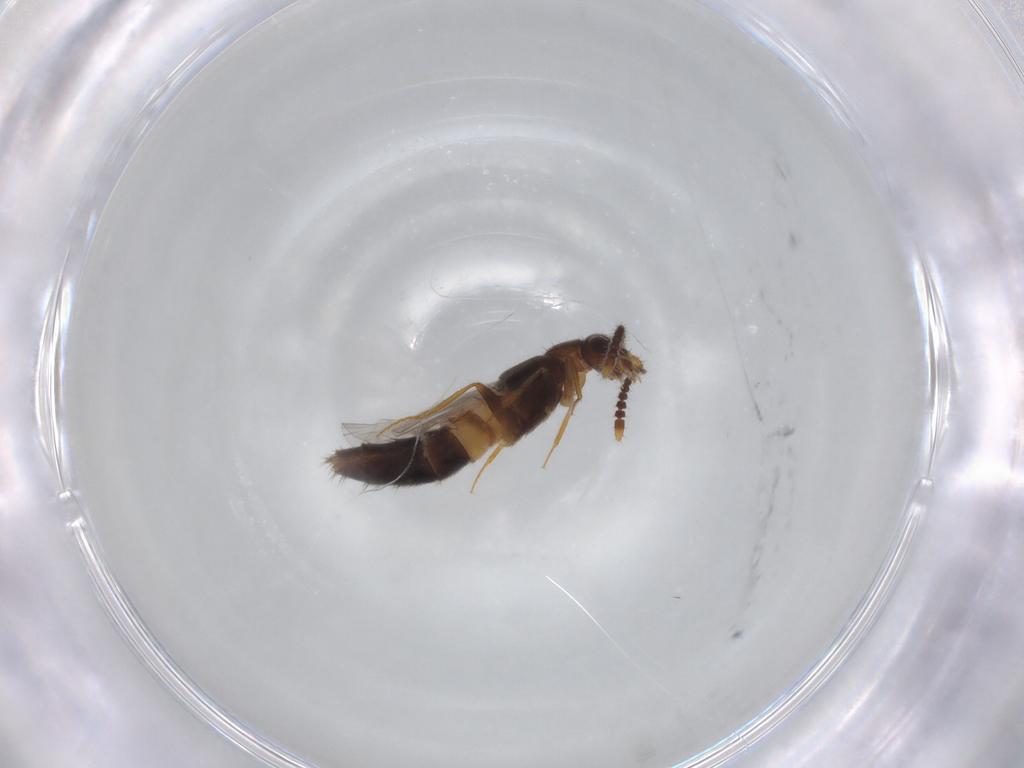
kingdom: Animalia
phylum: Arthropoda
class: Insecta
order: Coleoptera
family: Staphylinidae
